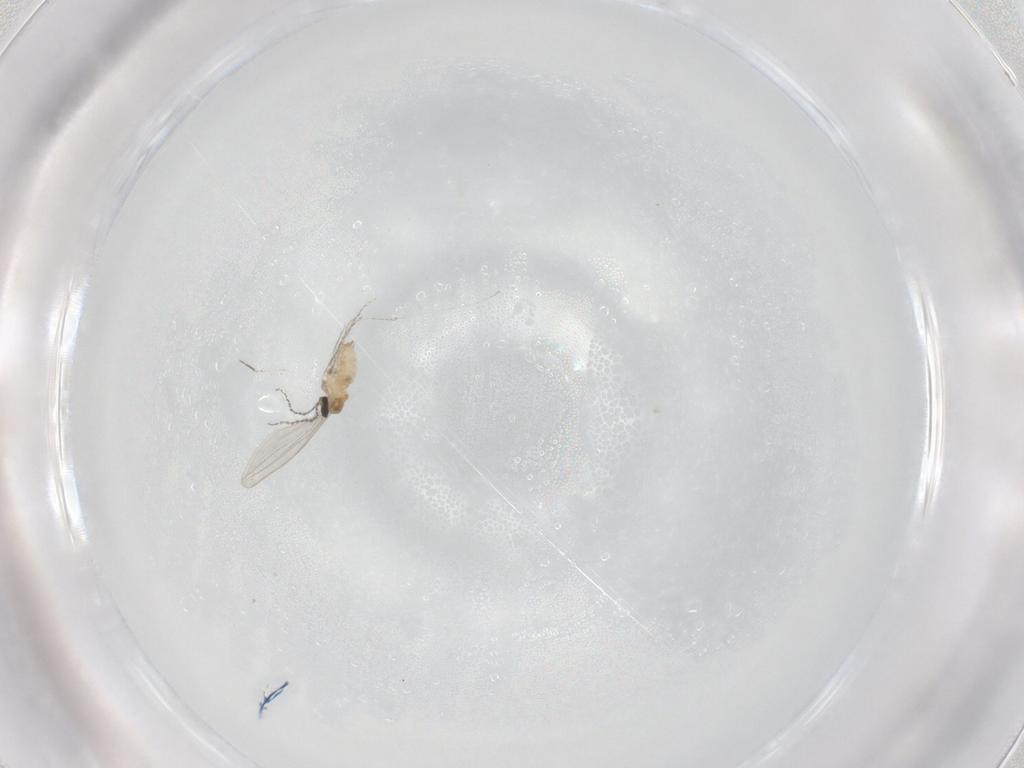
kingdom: Animalia
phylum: Arthropoda
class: Insecta
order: Diptera
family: Cecidomyiidae
